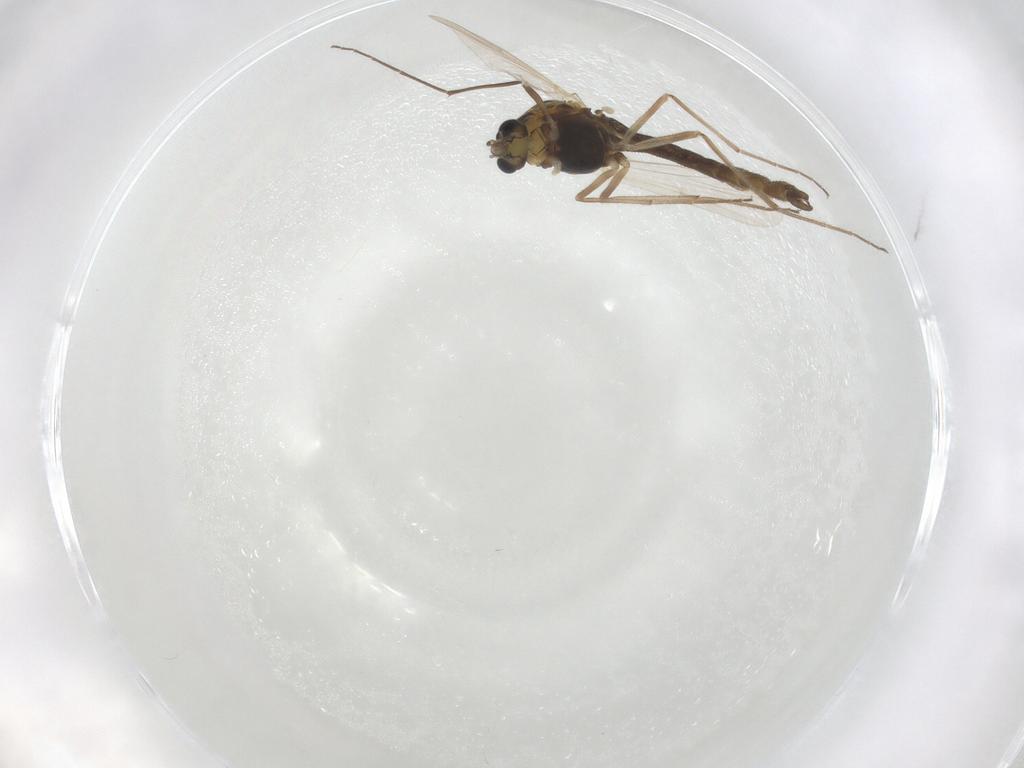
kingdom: Animalia
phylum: Arthropoda
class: Insecta
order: Diptera
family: Chironomidae
